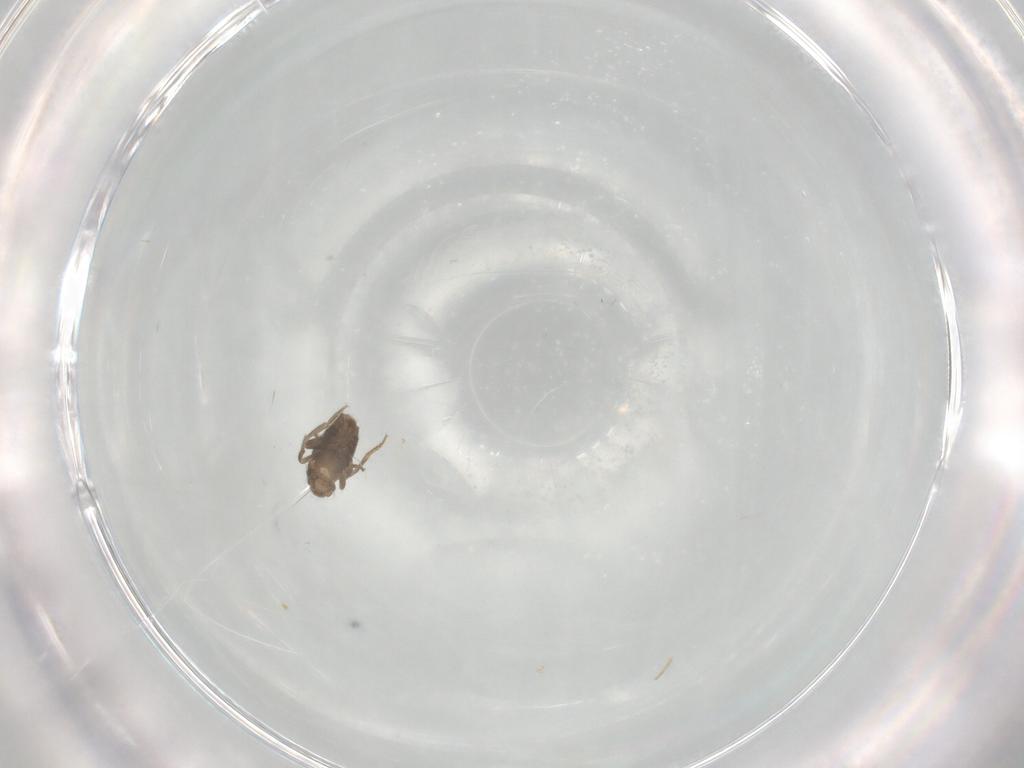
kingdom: Animalia
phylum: Arthropoda
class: Insecta
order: Diptera
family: Phoridae
